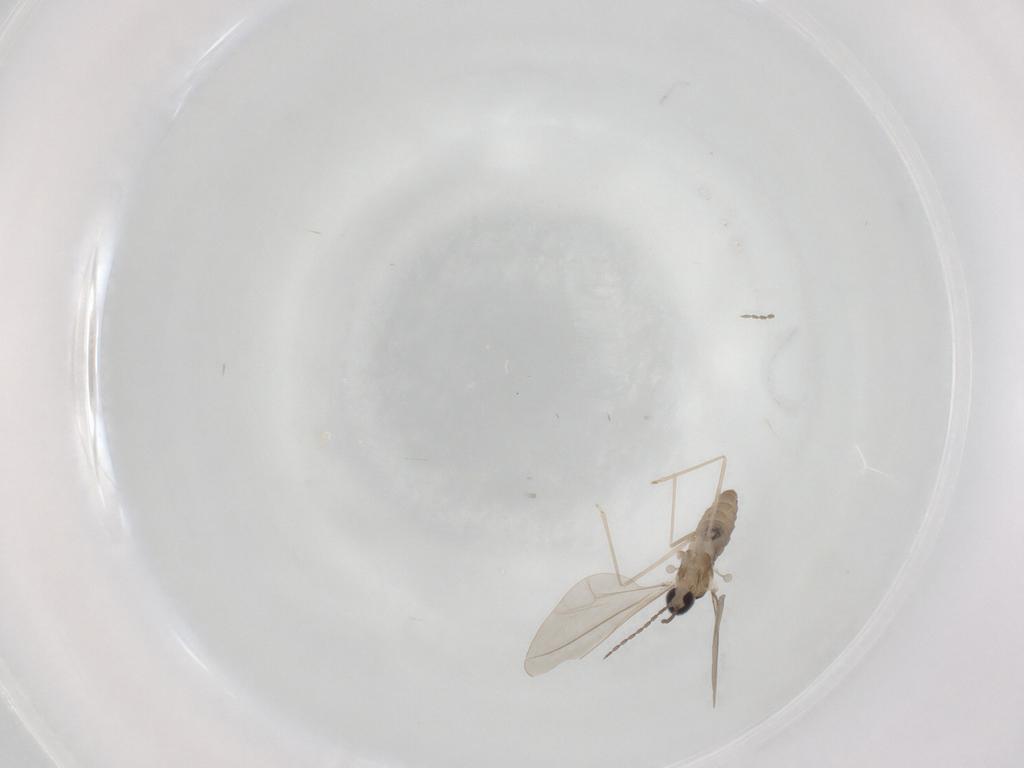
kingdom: Animalia
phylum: Arthropoda
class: Insecta
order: Diptera
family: Cecidomyiidae
